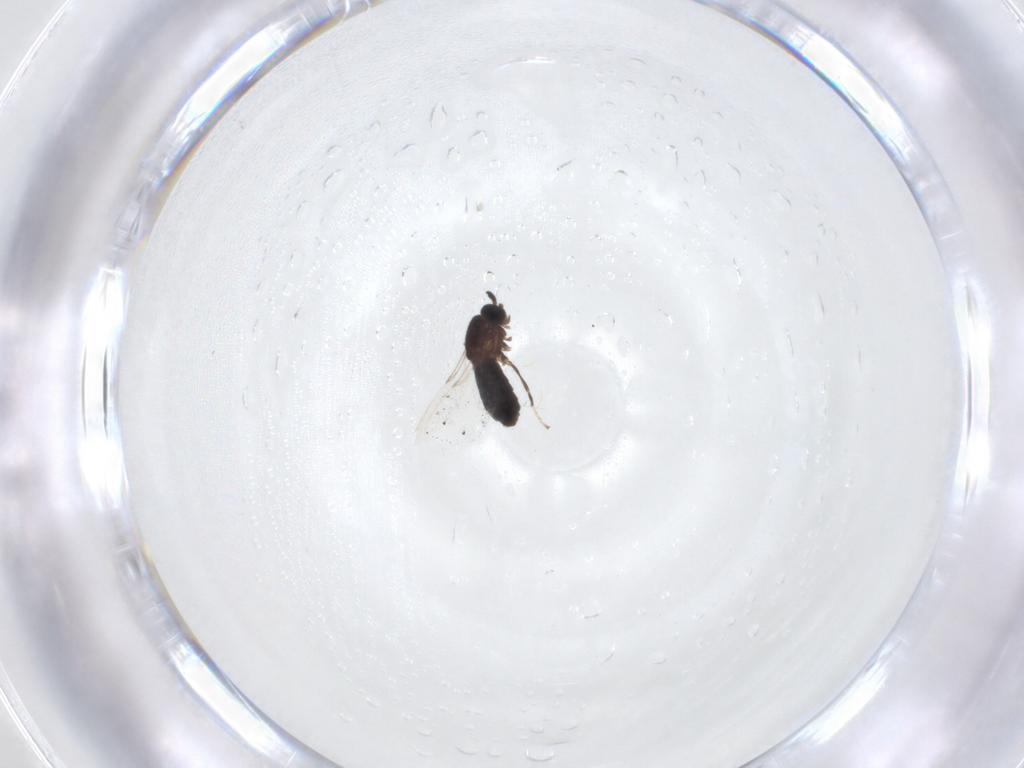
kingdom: Animalia
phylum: Arthropoda
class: Insecta
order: Diptera
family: Scatopsidae
